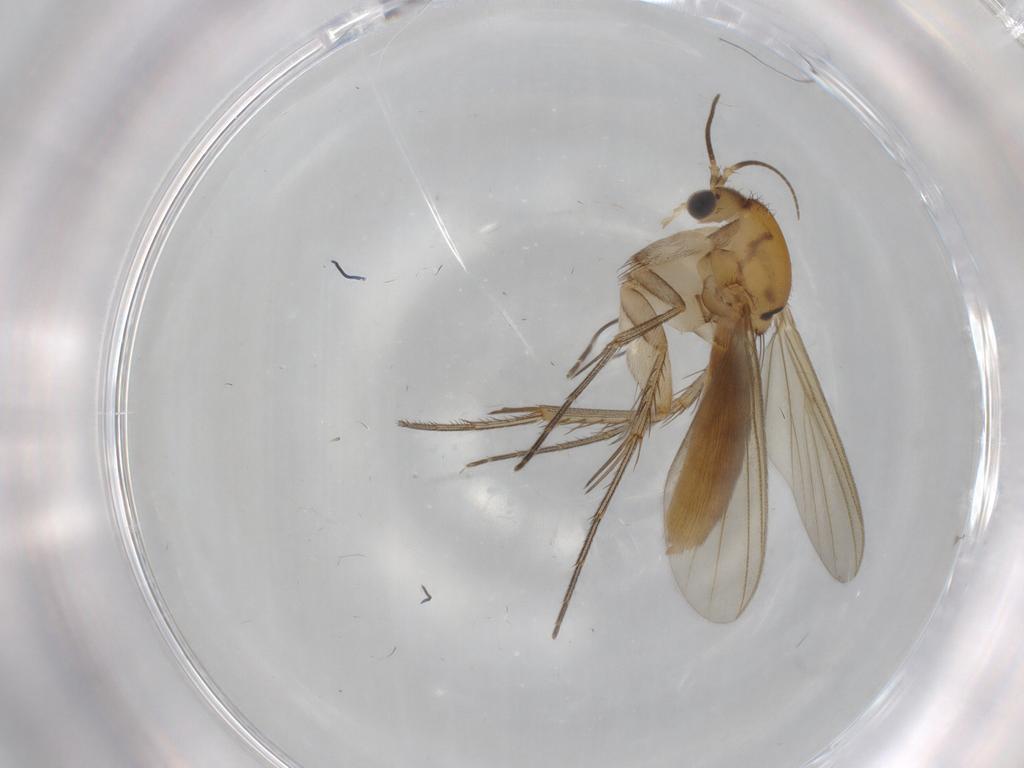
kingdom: Animalia
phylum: Arthropoda
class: Insecta
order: Diptera
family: Mycetophilidae
